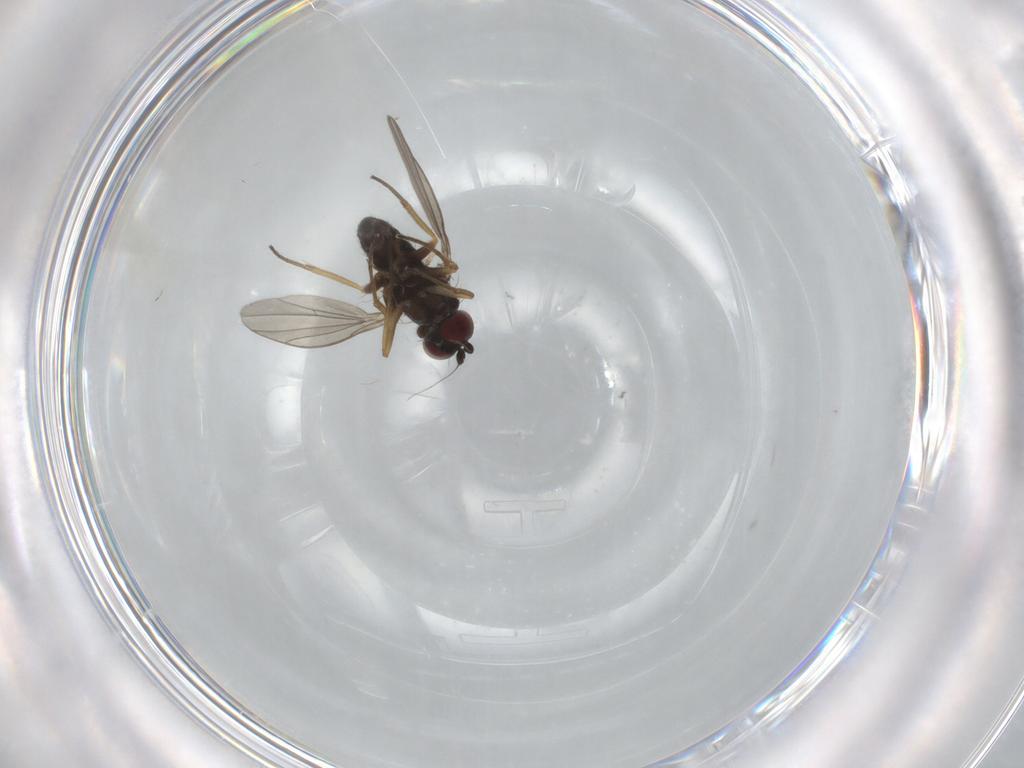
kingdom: Animalia
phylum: Arthropoda
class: Insecta
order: Diptera
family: Dolichopodidae
